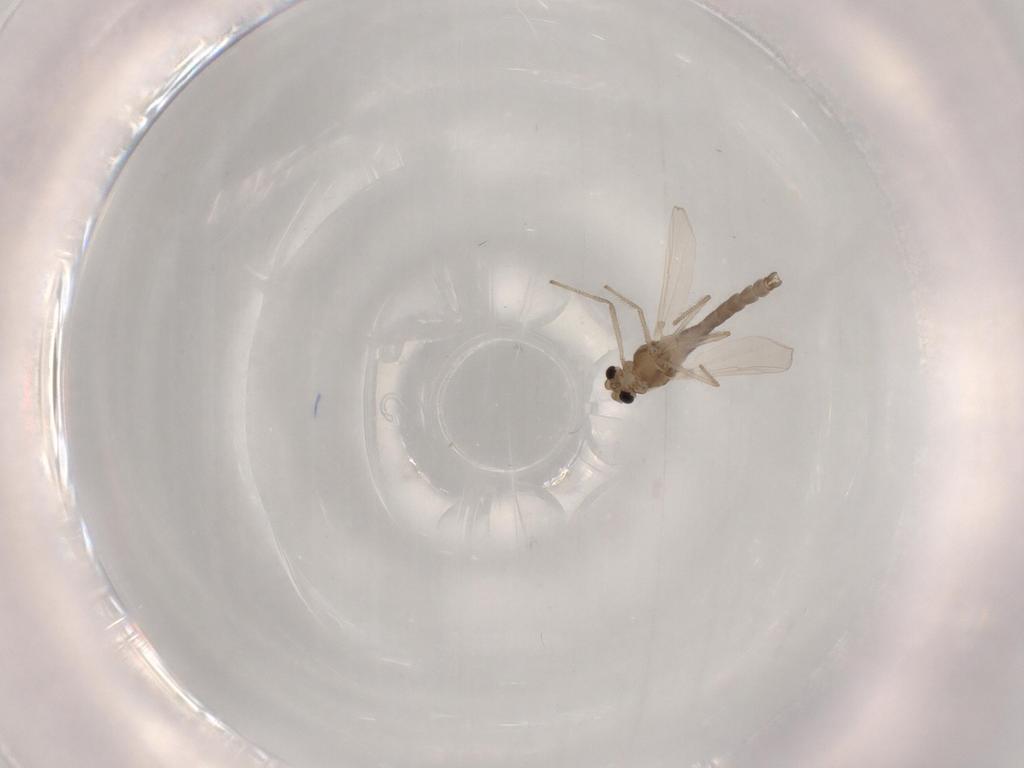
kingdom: Animalia
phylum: Arthropoda
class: Insecta
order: Diptera
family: Chironomidae
